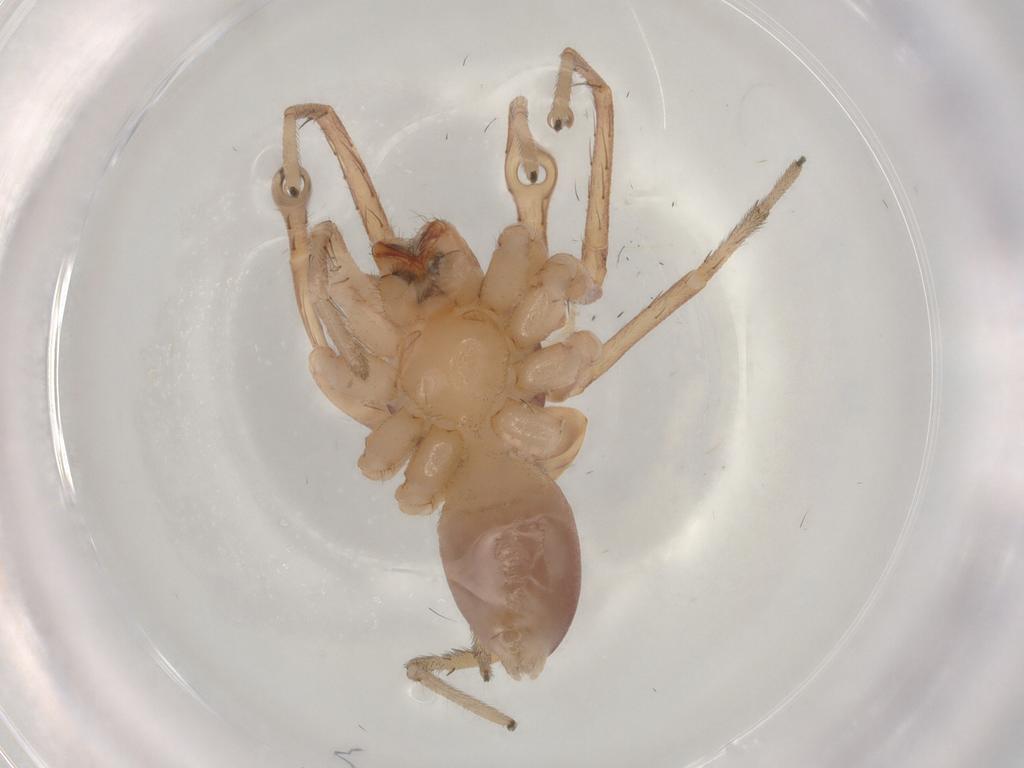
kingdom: Animalia
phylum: Arthropoda
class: Arachnida
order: Araneae
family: Corinnidae
